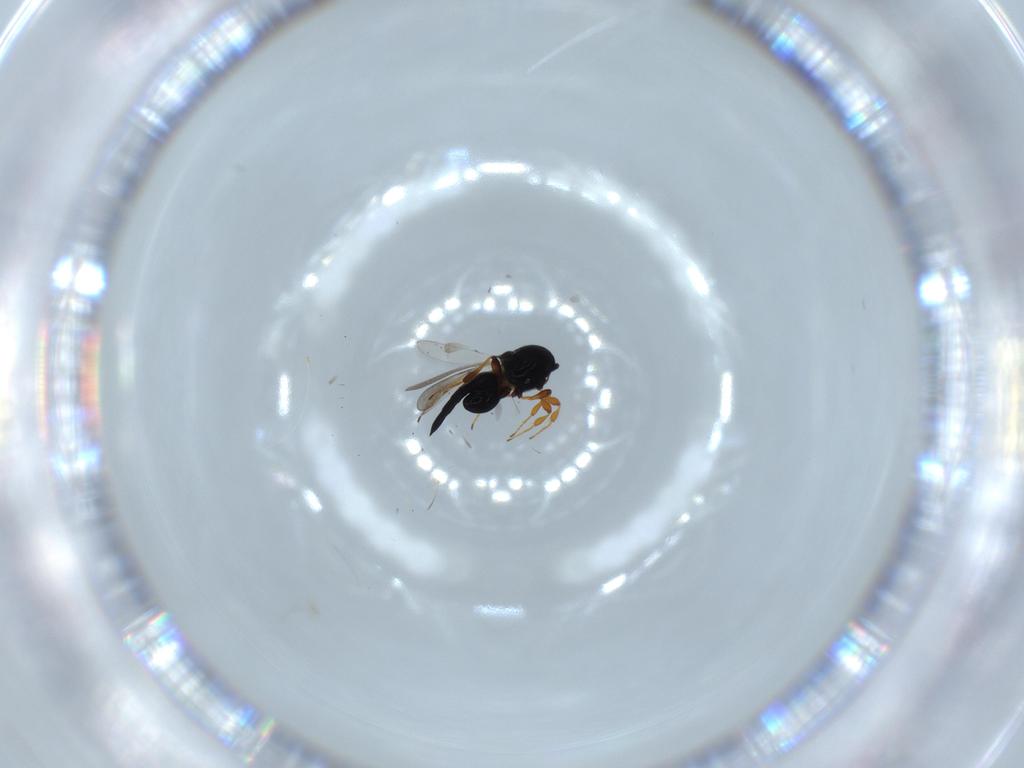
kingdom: Animalia
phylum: Arthropoda
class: Insecta
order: Hymenoptera
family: Platygastridae
